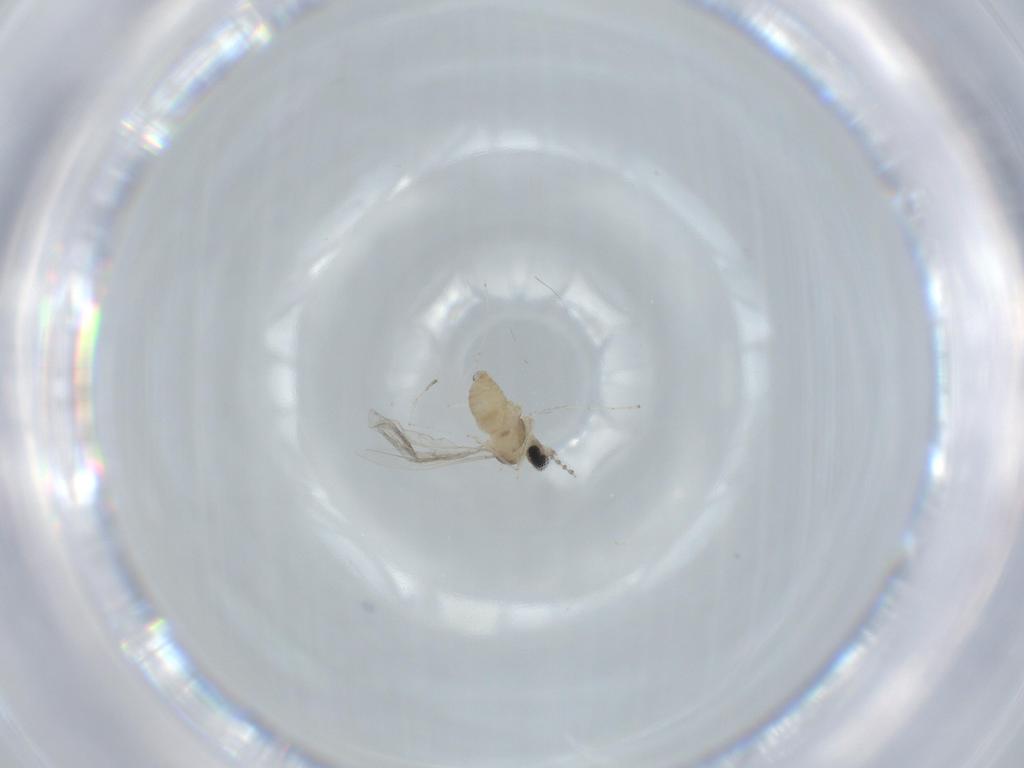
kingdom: Animalia
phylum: Arthropoda
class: Insecta
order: Diptera
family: Cecidomyiidae
